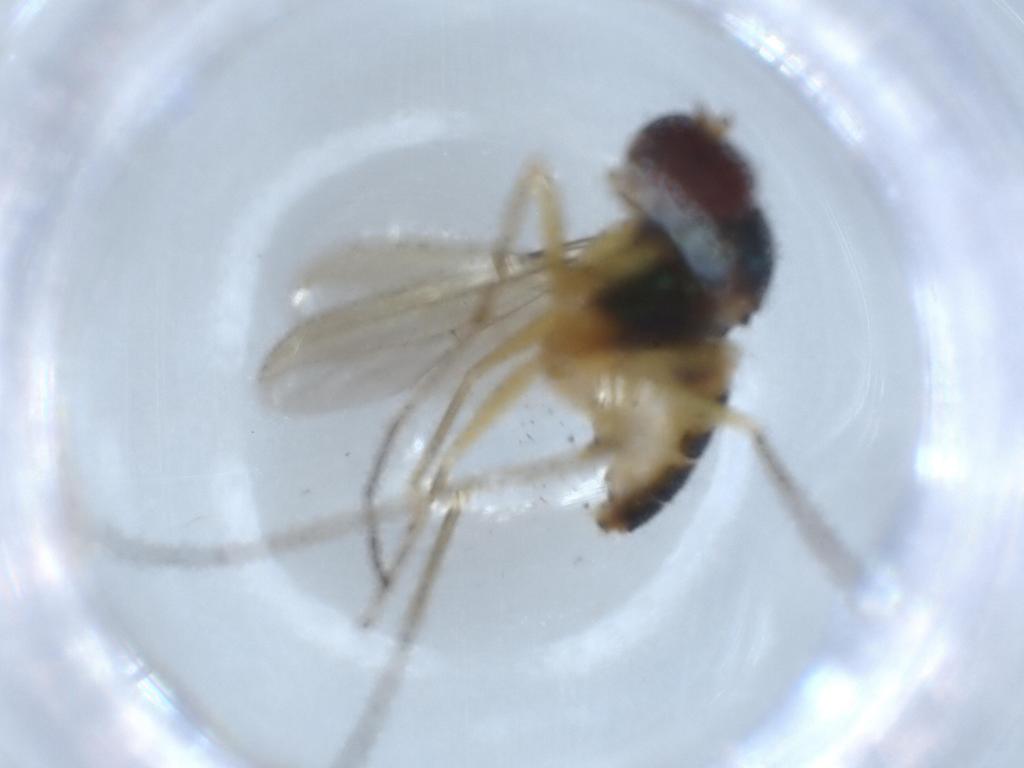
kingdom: Animalia
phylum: Arthropoda
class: Insecta
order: Diptera
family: Dolichopodidae
